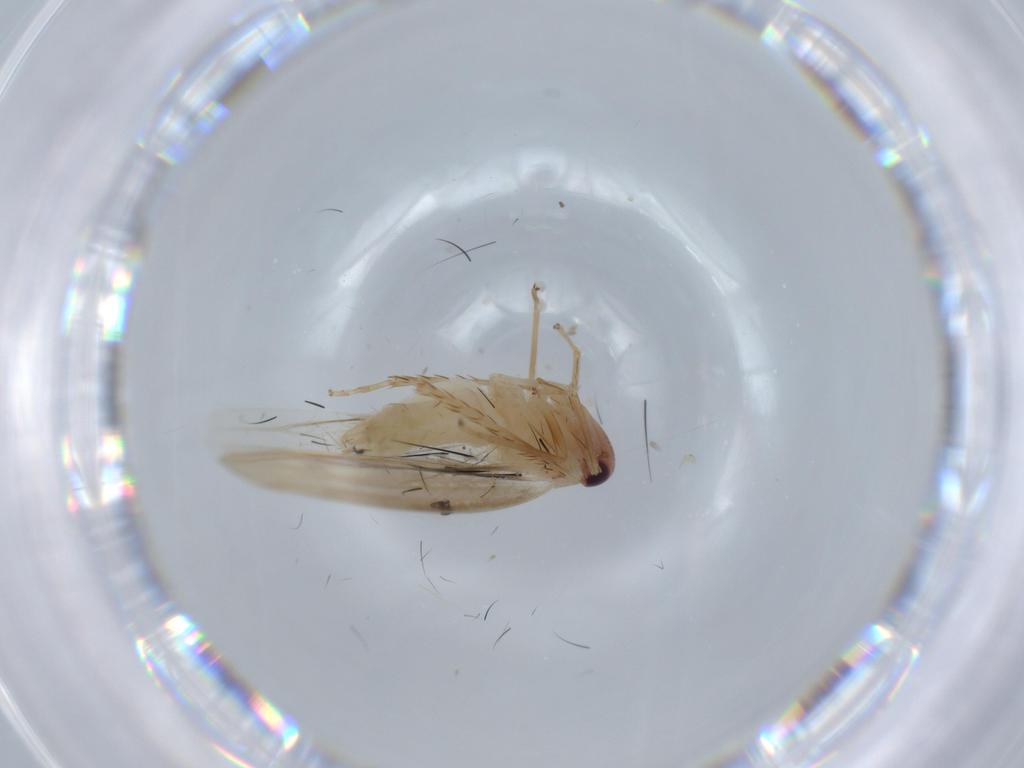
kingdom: Animalia
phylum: Arthropoda
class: Insecta
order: Hemiptera
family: Cicadellidae
